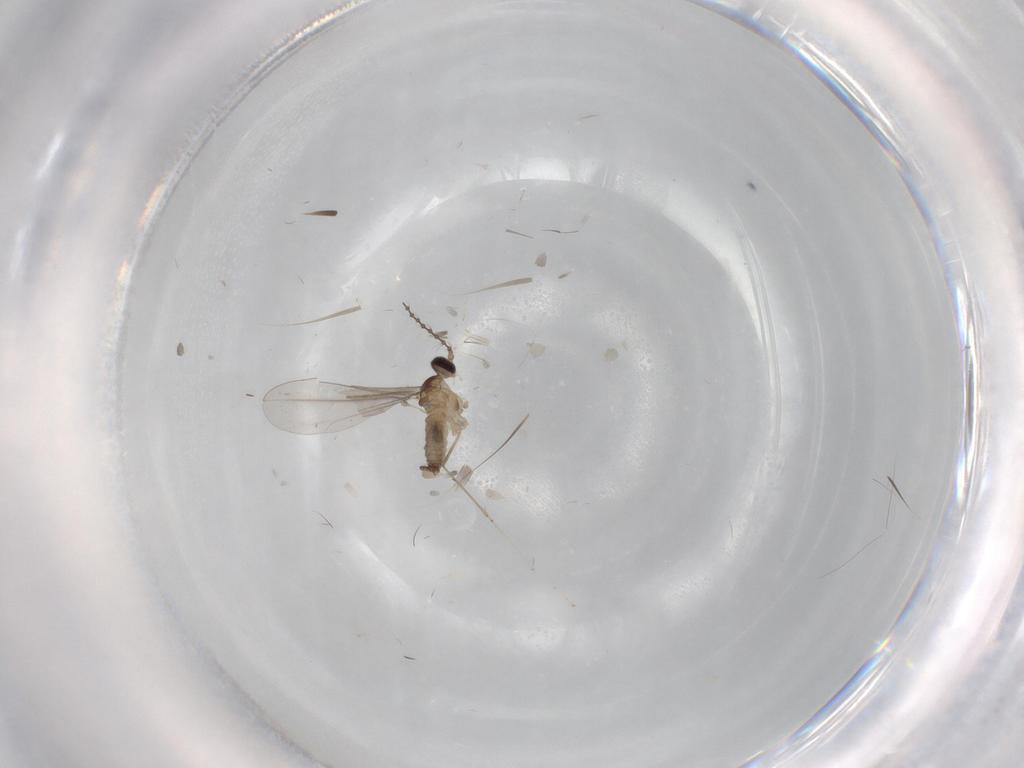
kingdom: Animalia
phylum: Arthropoda
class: Insecta
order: Diptera
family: Cecidomyiidae
